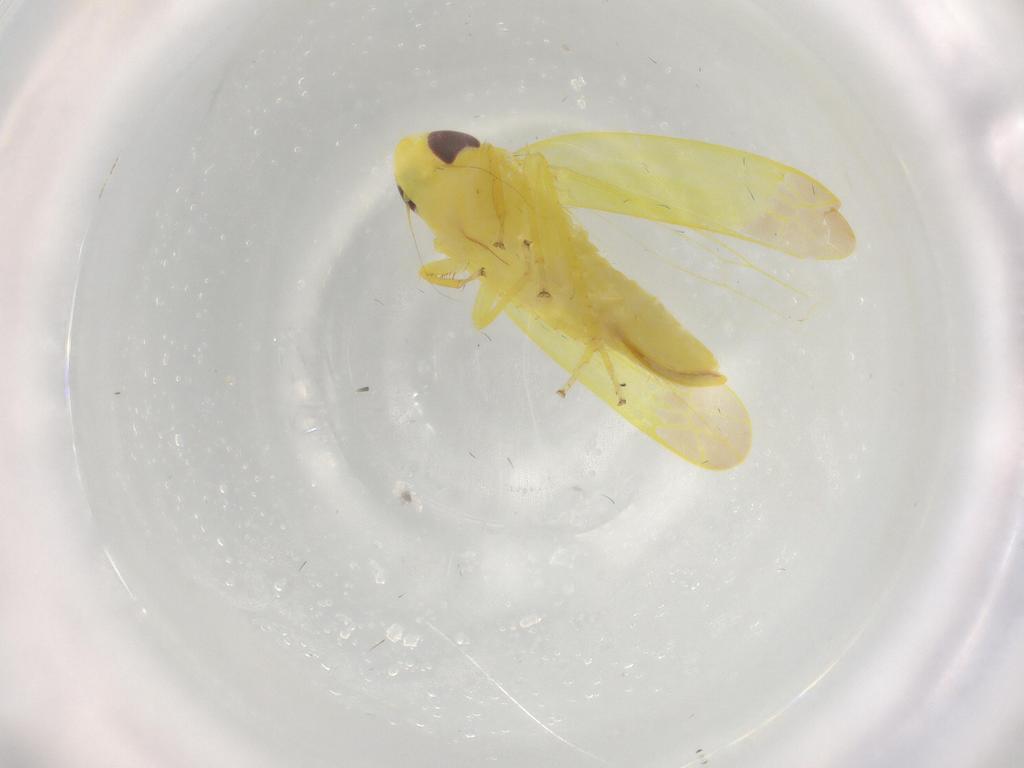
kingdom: Animalia
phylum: Arthropoda
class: Insecta
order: Hemiptera
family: Cicadellidae
